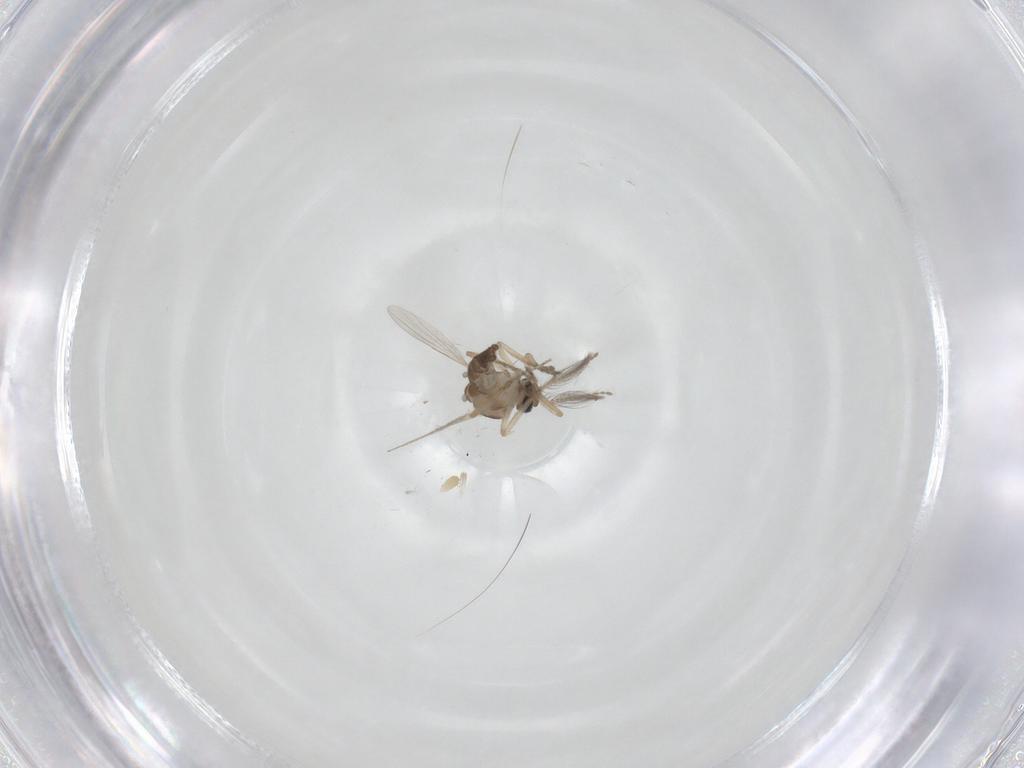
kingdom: Animalia
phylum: Arthropoda
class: Insecta
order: Diptera
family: Ceratopogonidae
